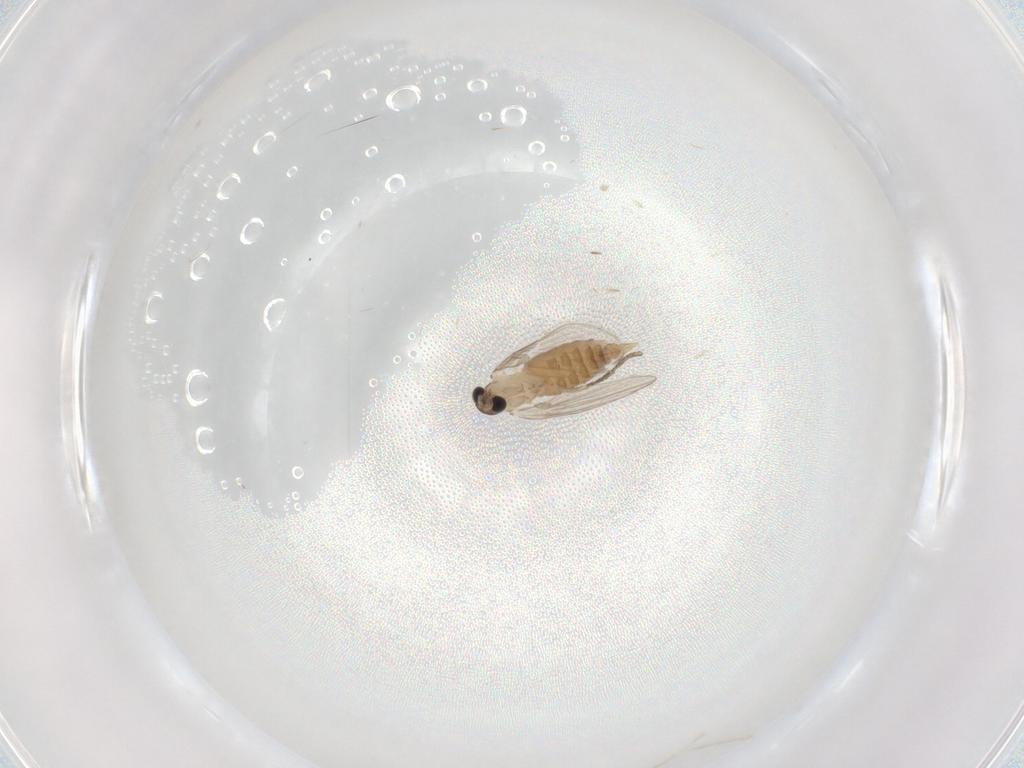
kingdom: Animalia
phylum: Arthropoda
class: Insecta
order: Diptera
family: Psychodidae
